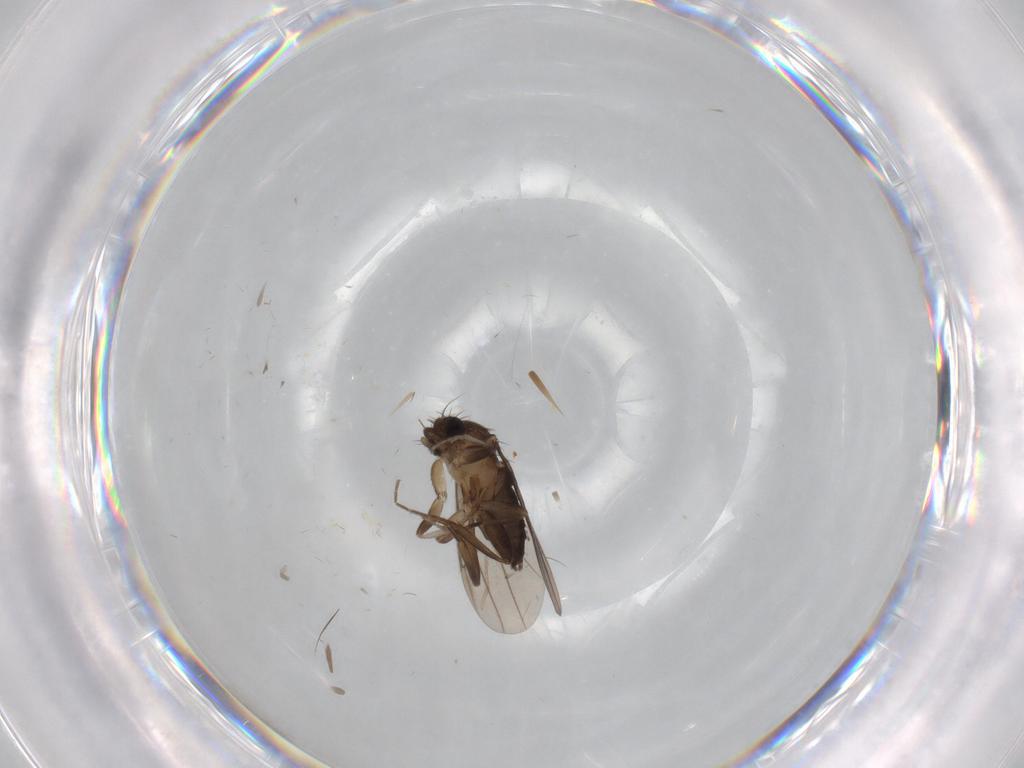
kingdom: Animalia
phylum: Arthropoda
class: Insecta
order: Diptera
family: Cecidomyiidae
